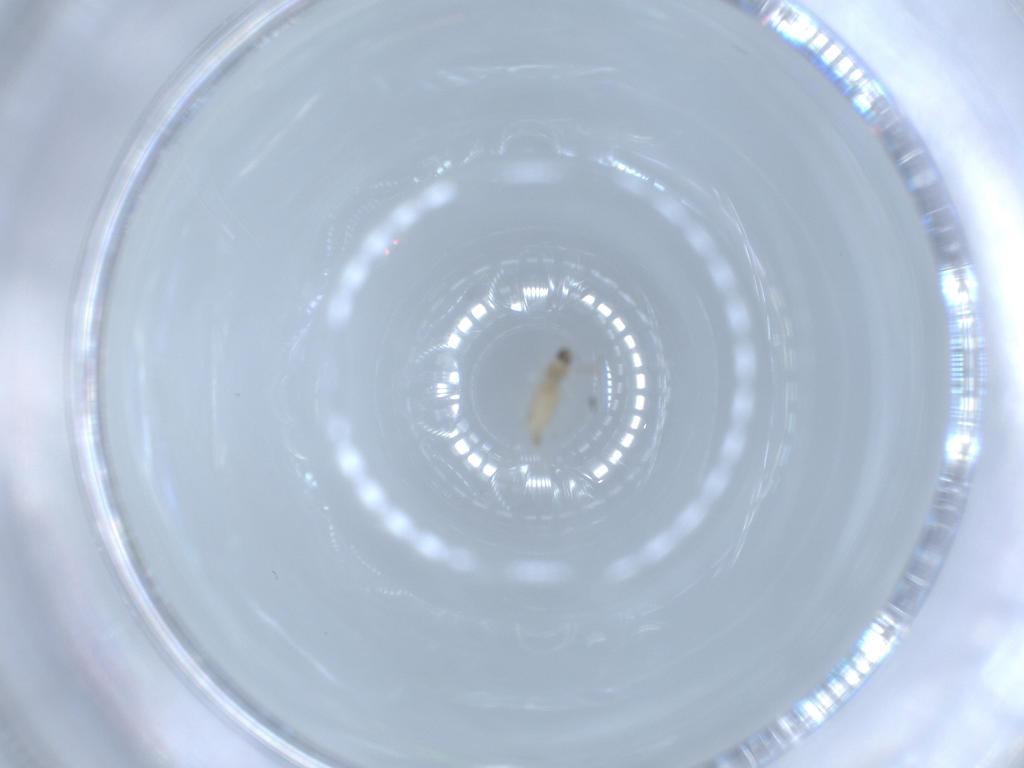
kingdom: Animalia
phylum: Arthropoda
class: Insecta
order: Diptera
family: Cecidomyiidae
